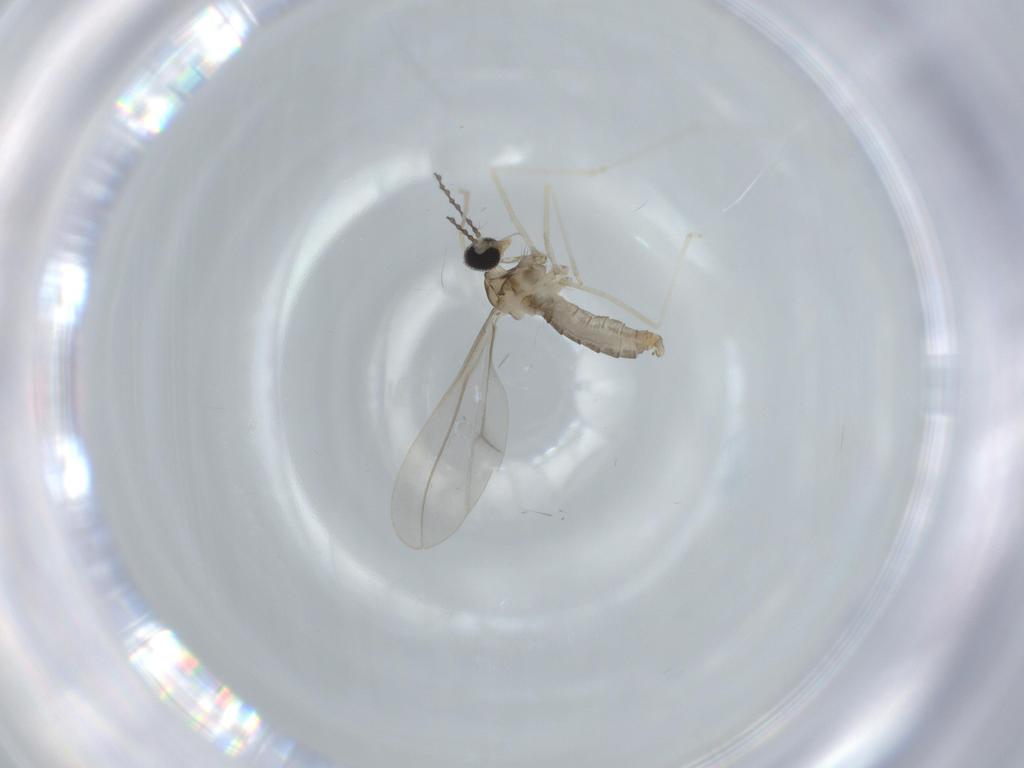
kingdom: Animalia
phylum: Arthropoda
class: Insecta
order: Diptera
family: Cecidomyiidae
